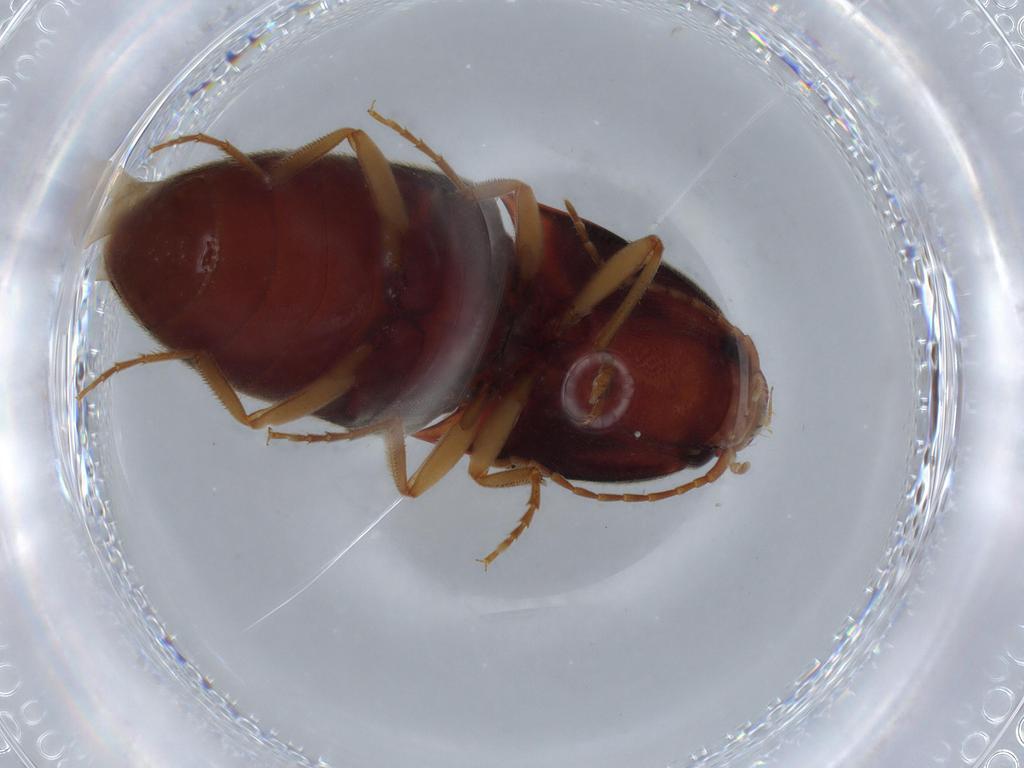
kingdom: Animalia
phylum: Arthropoda
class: Insecta
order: Coleoptera
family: Elateridae
